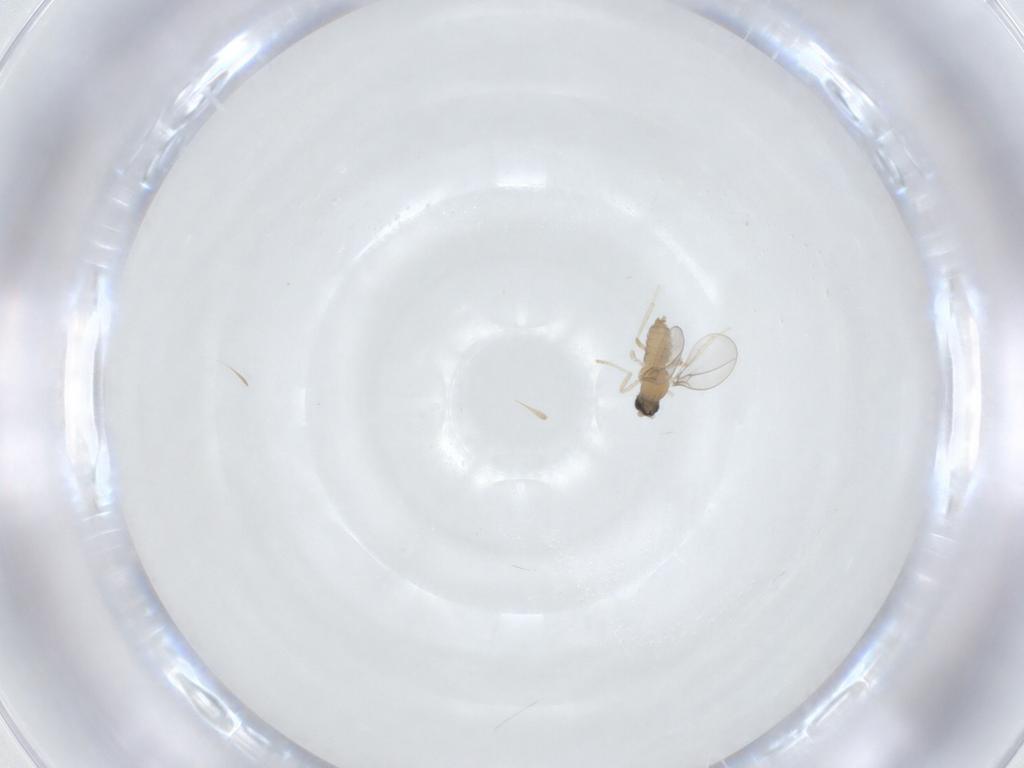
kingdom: Animalia
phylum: Arthropoda
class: Insecta
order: Diptera
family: Cecidomyiidae
